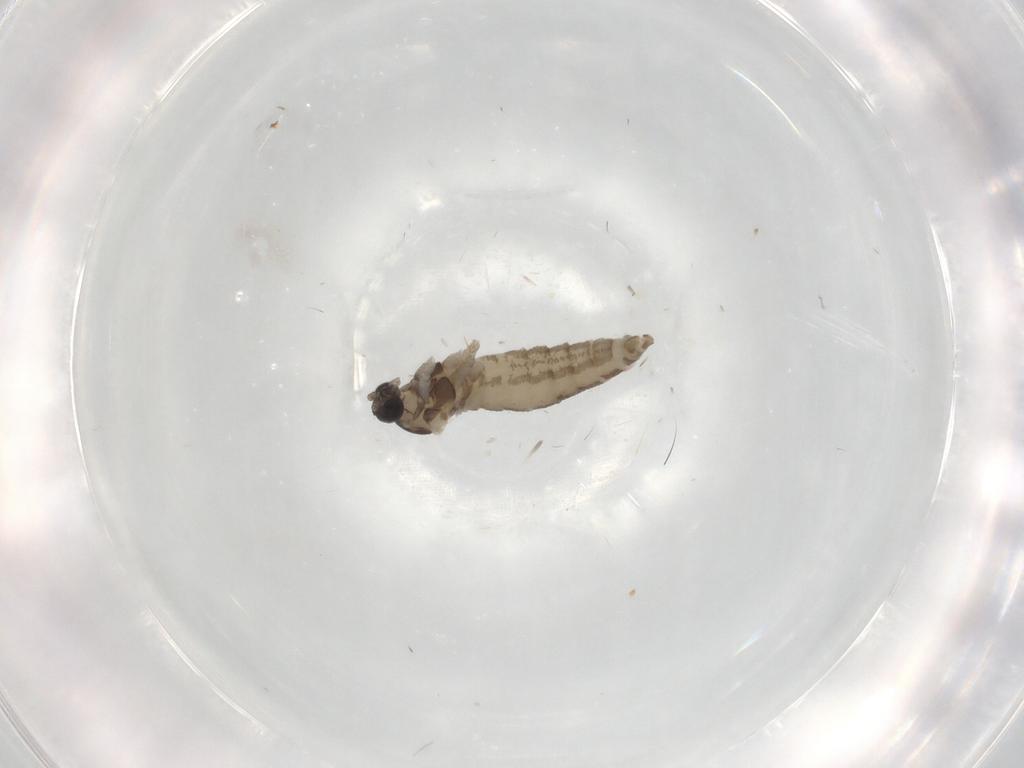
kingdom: Animalia
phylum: Arthropoda
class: Insecta
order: Diptera
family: Cecidomyiidae
